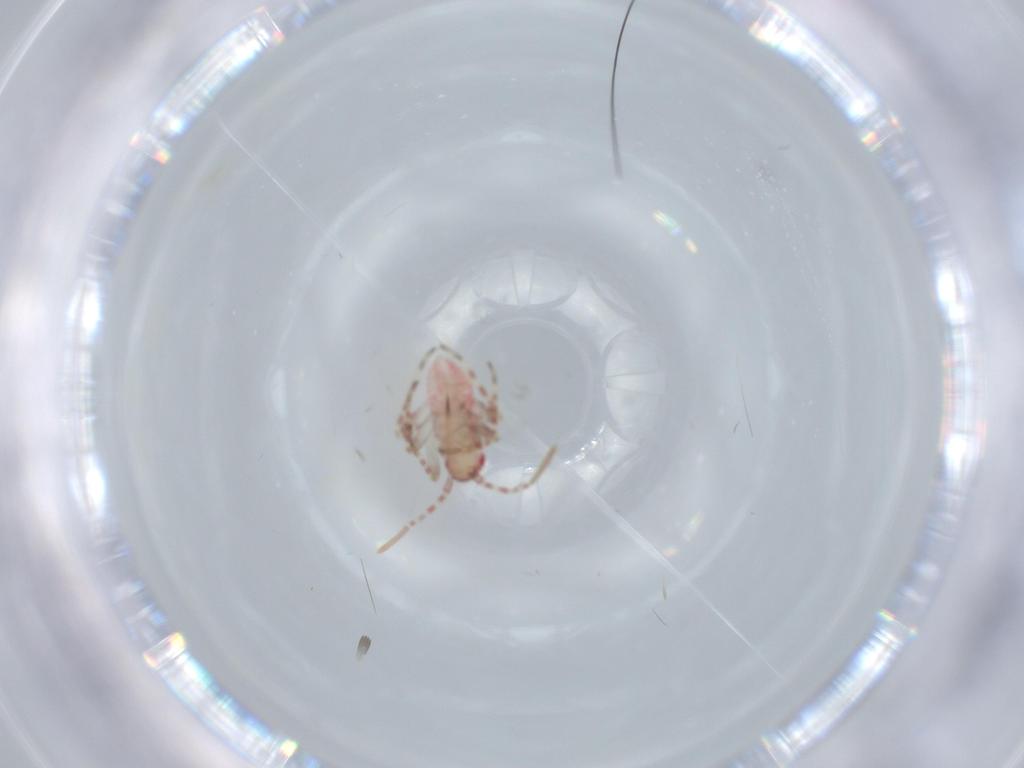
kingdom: Animalia
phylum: Arthropoda
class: Insecta
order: Hemiptera
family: Miridae
